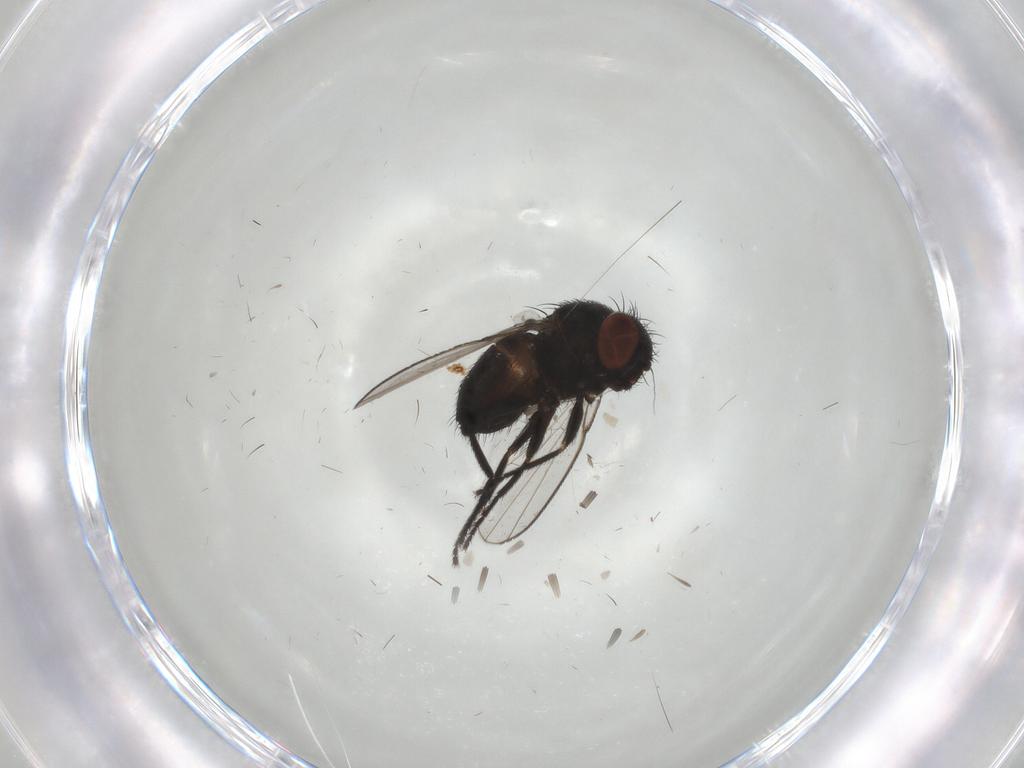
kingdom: Animalia
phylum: Arthropoda
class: Insecta
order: Diptera
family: Milichiidae
